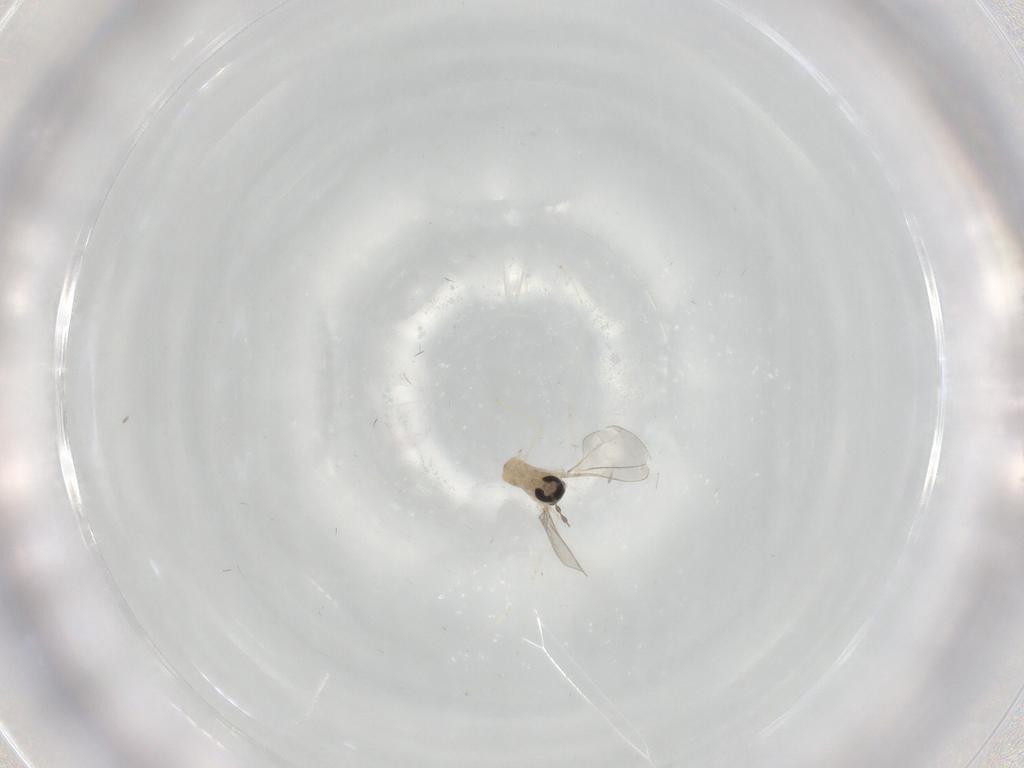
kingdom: Animalia
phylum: Arthropoda
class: Insecta
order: Diptera
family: Cecidomyiidae
